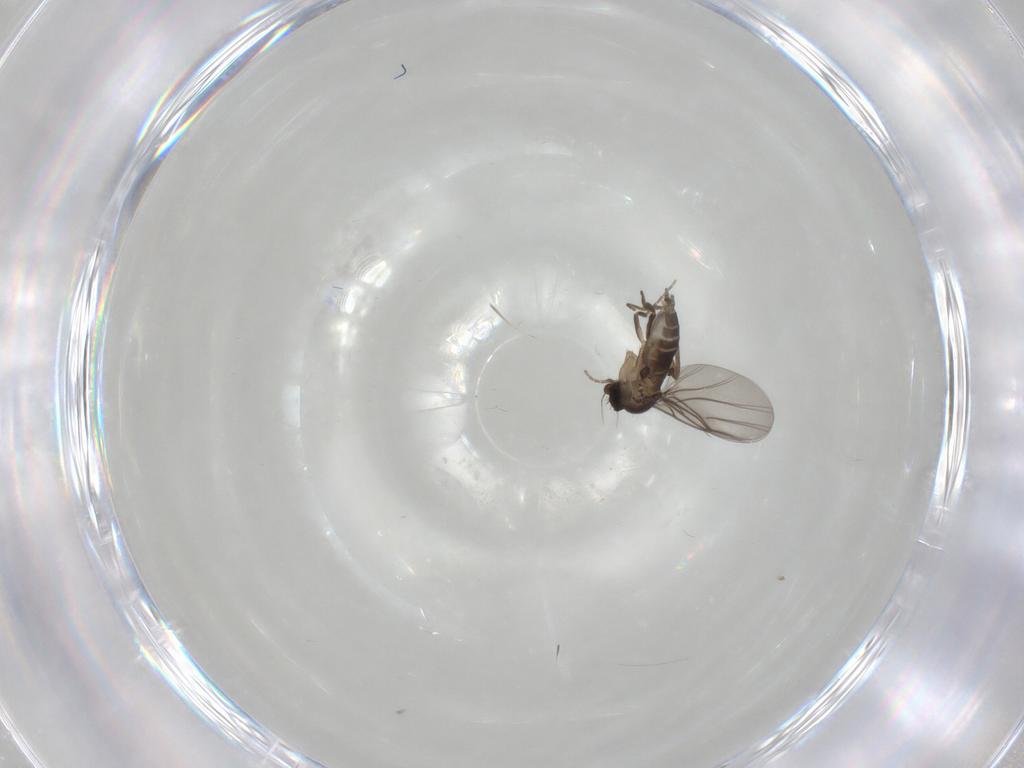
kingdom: Animalia
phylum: Arthropoda
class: Insecta
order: Diptera
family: Phoridae
